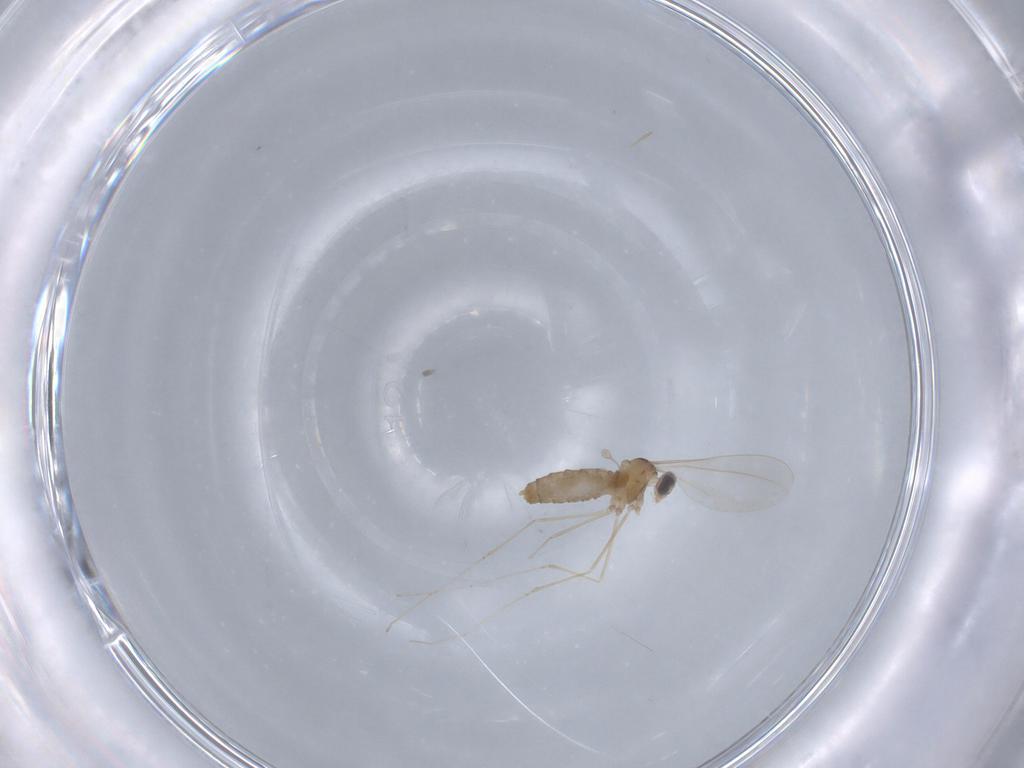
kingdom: Animalia
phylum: Arthropoda
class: Insecta
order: Diptera
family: Cecidomyiidae
